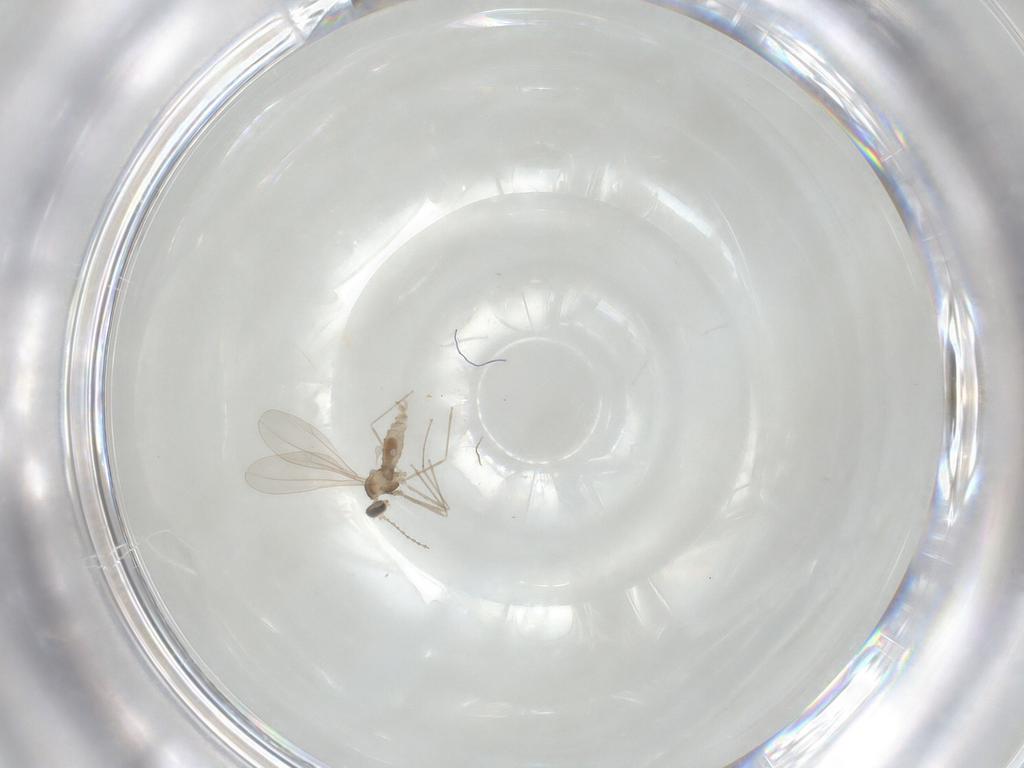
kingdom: Animalia
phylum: Arthropoda
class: Insecta
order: Diptera
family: Cecidomyiidae
